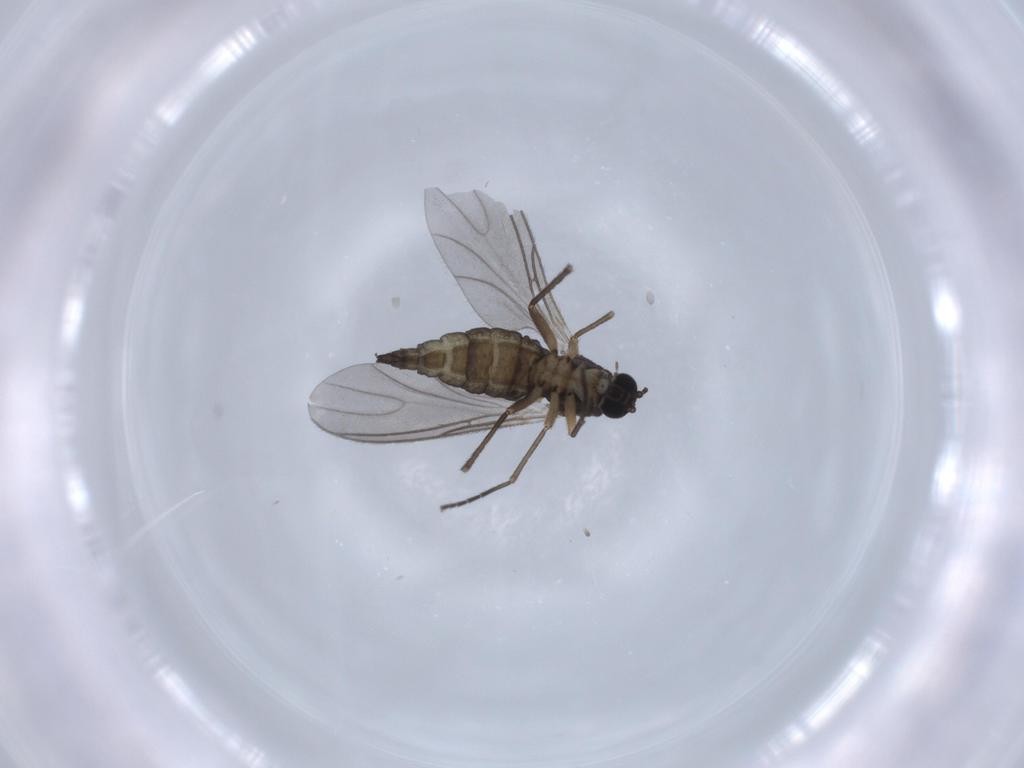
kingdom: Animalia
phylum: Arthropoda
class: Insecta
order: Diptera
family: Sciaridae
